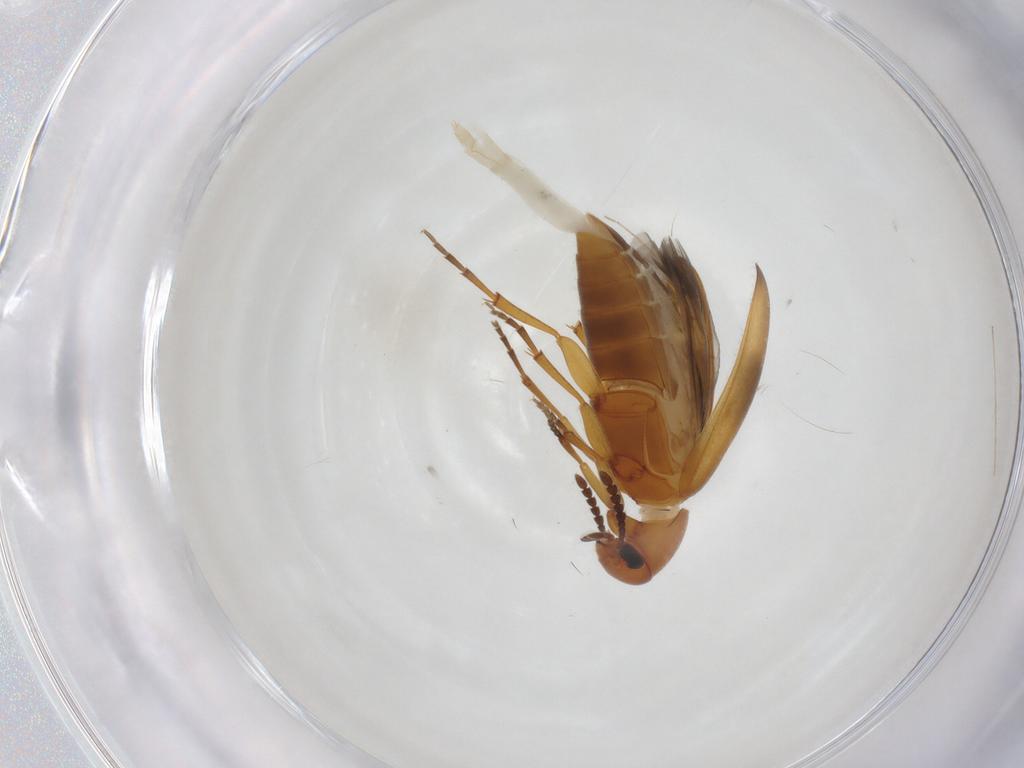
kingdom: Animalia
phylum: Arthropoda
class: Insecta
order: Coleoptera
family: Scraptiidae
